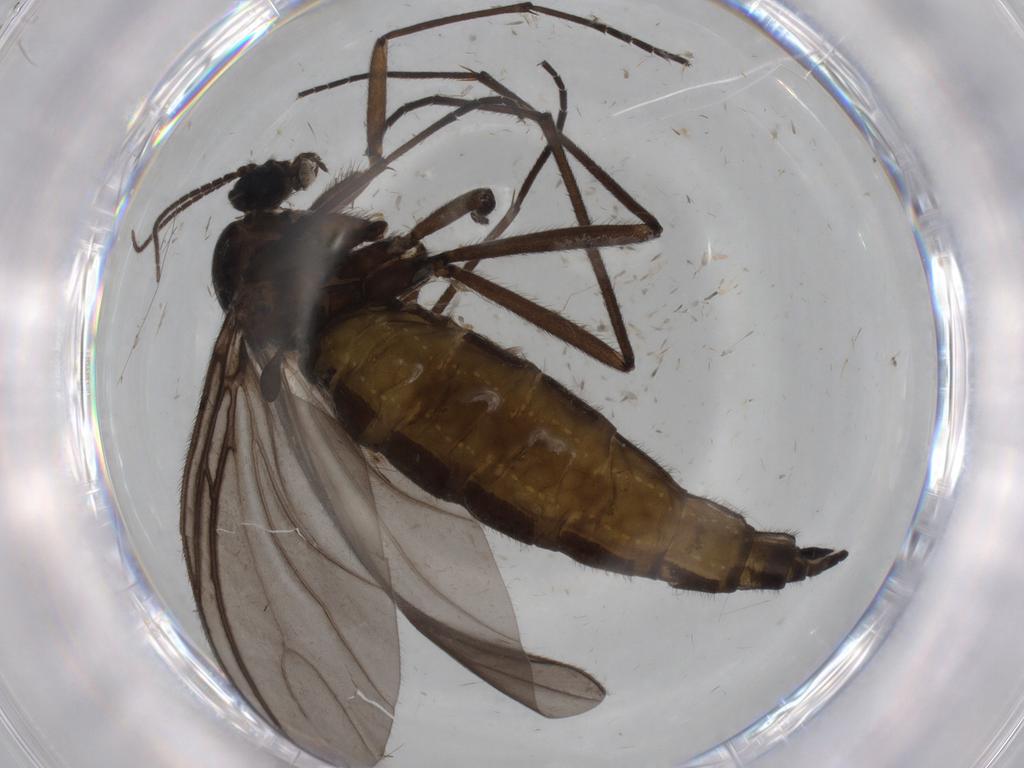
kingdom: Animalia
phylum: Arthropoda
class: Insecta
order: Diptera
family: Sciaridae
